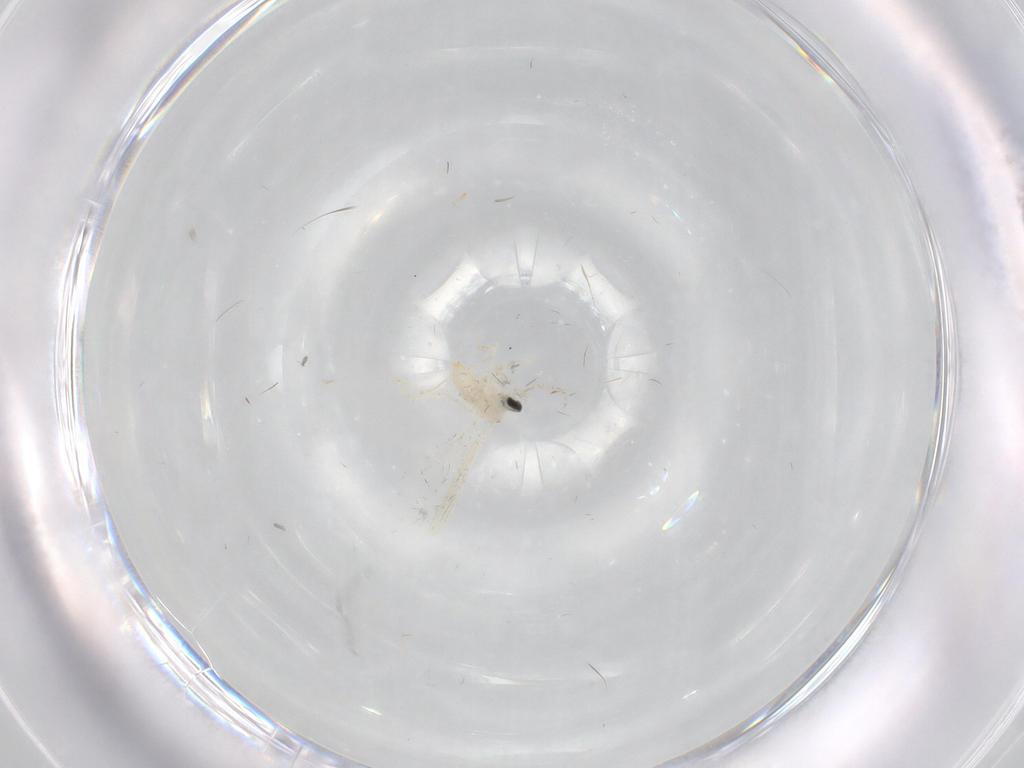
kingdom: Animalia
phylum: Arthropoda
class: Insecta
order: Diptera
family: Cecidomyiidae
